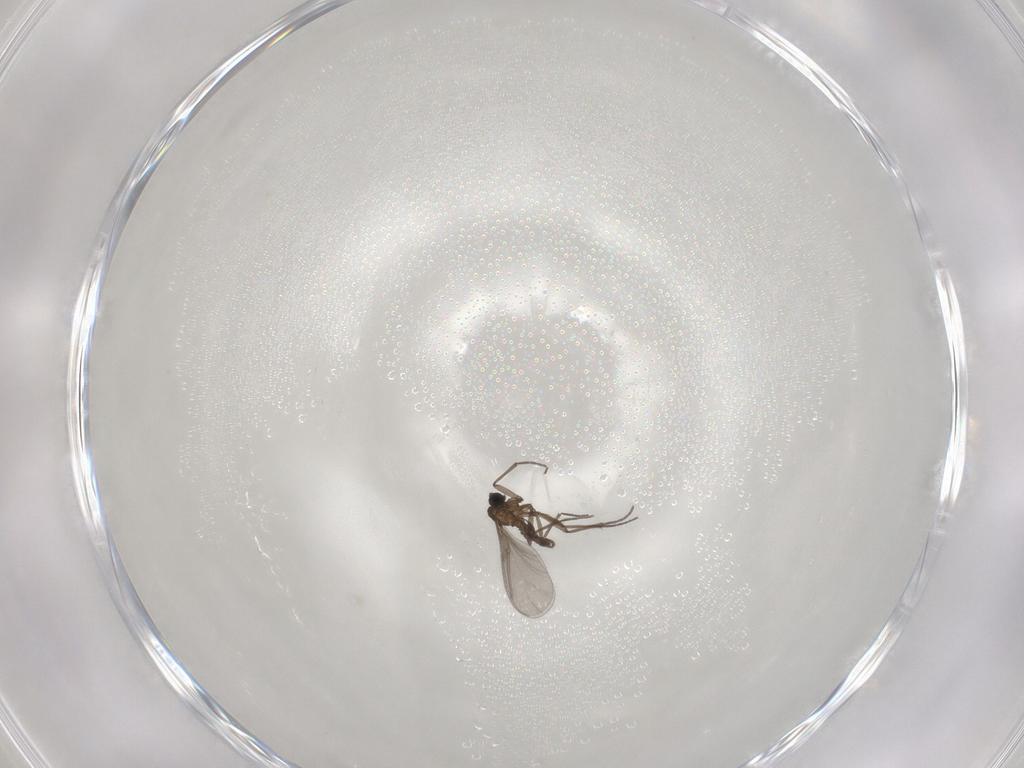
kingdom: Animalia
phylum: Arthropoda
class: Insecta
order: Diptera
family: Sciaridae
